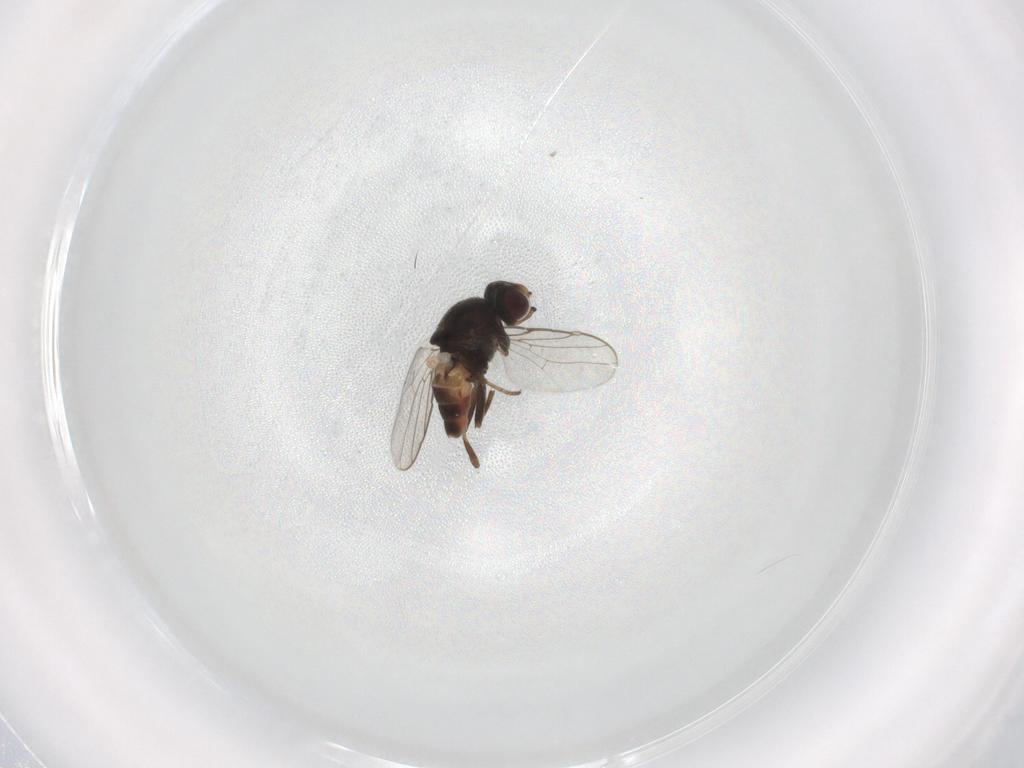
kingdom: Animalia
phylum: Arthropoda
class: Insecta
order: Diptera
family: Chloropidae
